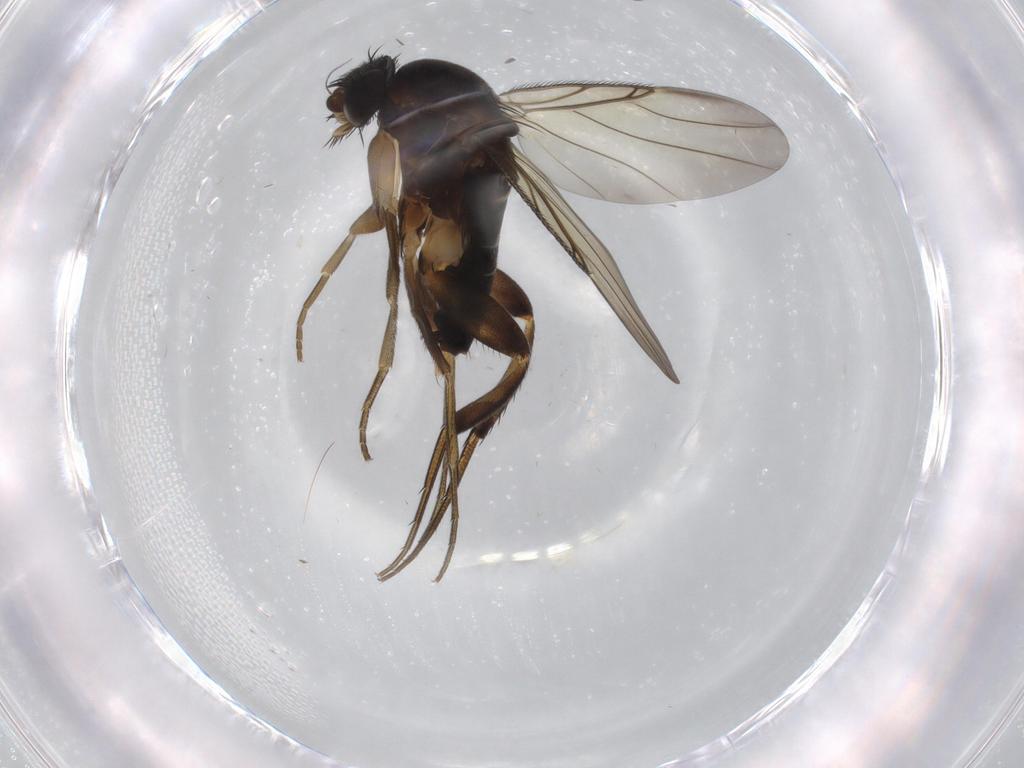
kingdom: Animalia
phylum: Arthropoda
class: Insecta
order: Diptera
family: Phoridae
